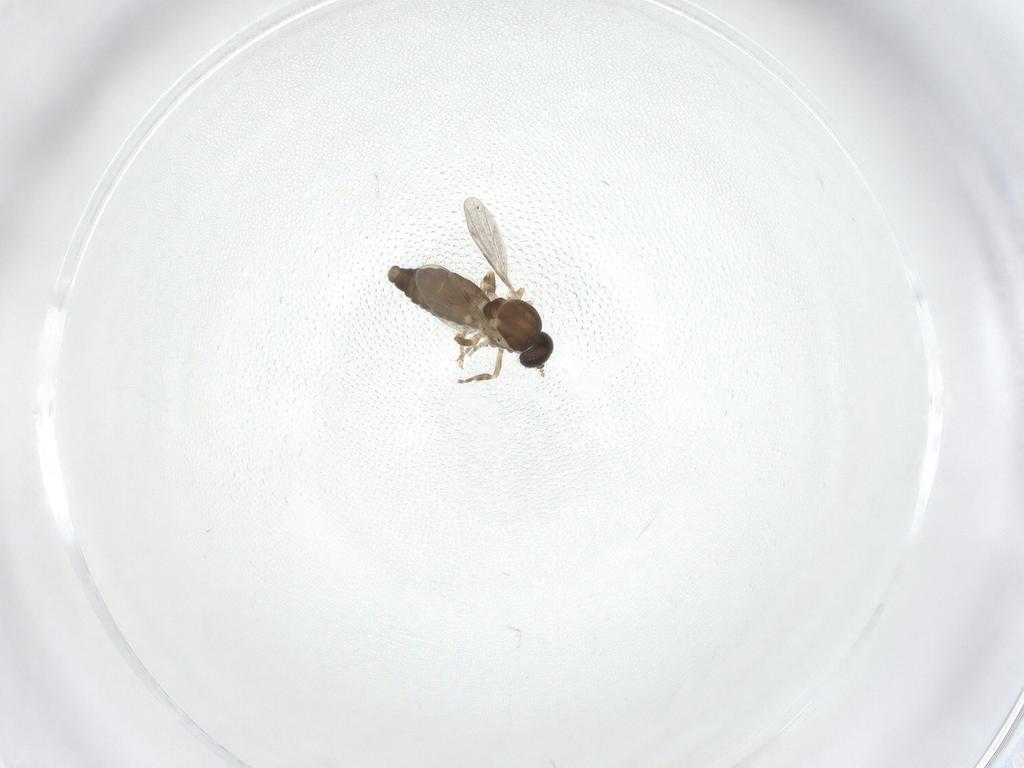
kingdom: Animalia
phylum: Arthropoda
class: Insecta
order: Diptera
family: Ceratopogonidae
